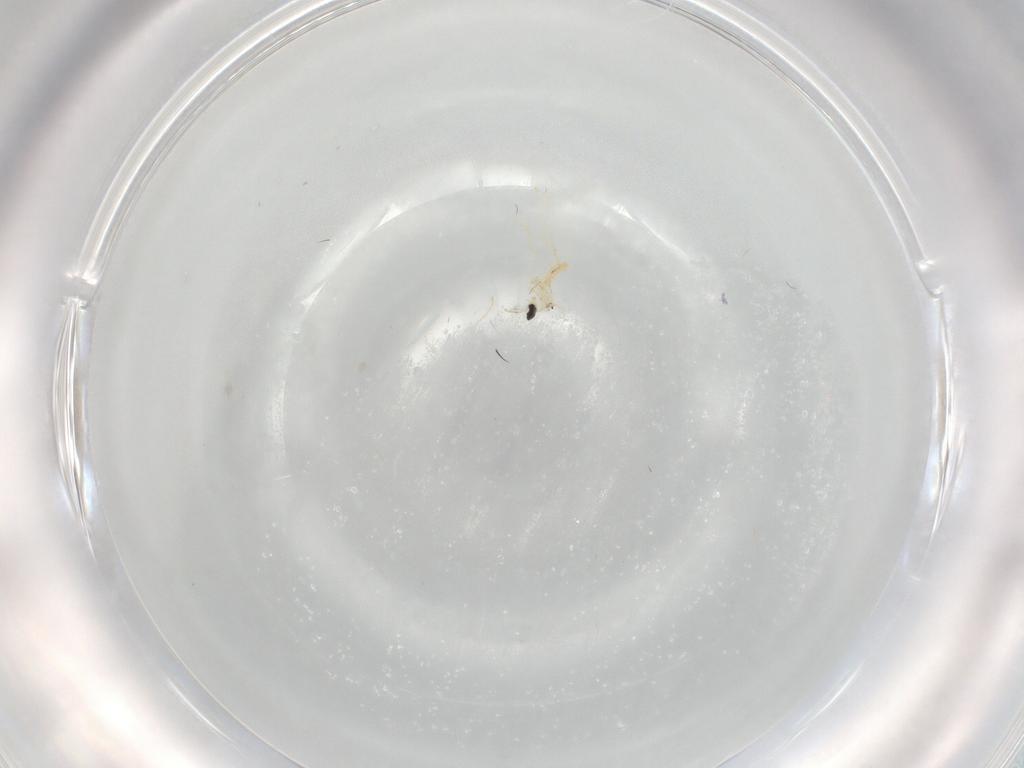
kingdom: Animalia
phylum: Arthropoda
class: Insecta
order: Diptera
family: Cecidomyiidae
